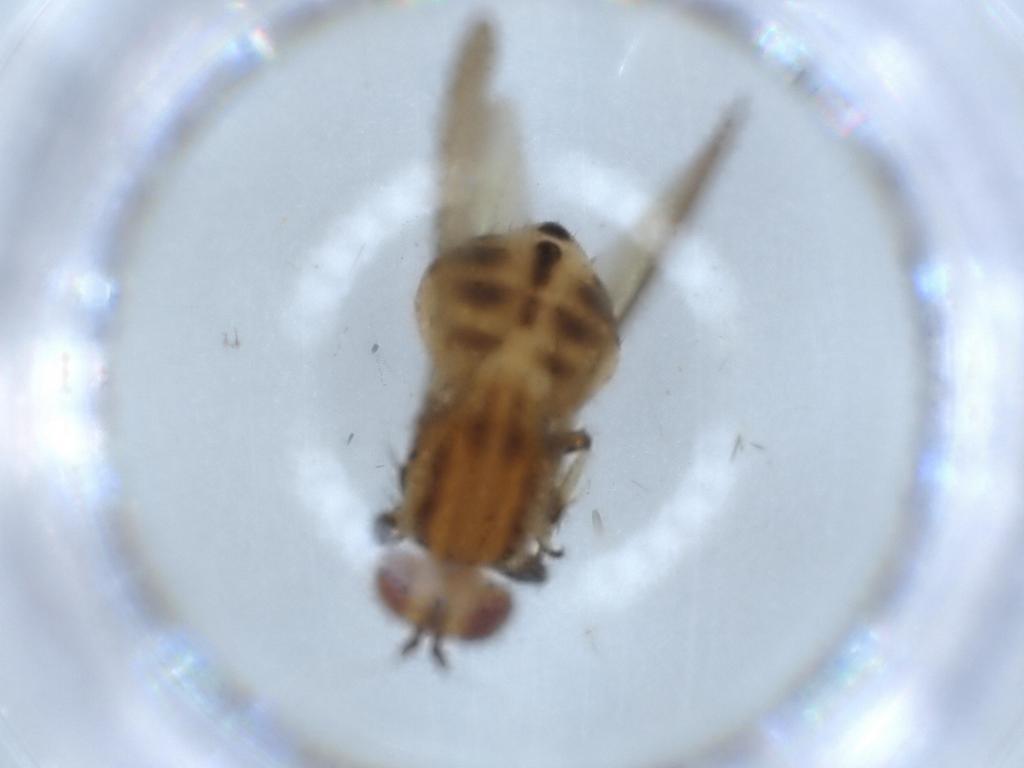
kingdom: Animalia
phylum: Arthropoda
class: Insecta
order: Diptera
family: Lauxaniidae
